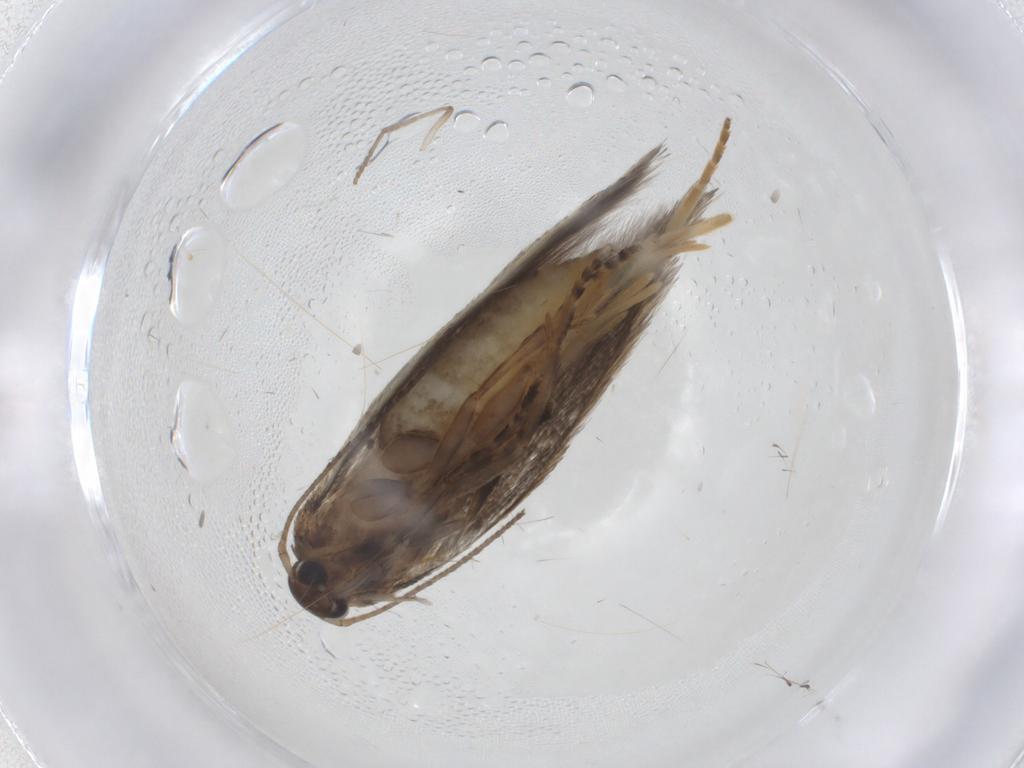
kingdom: Animalia
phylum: Arthropoda
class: Insecta
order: Lepidoptera
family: Elachistidae
